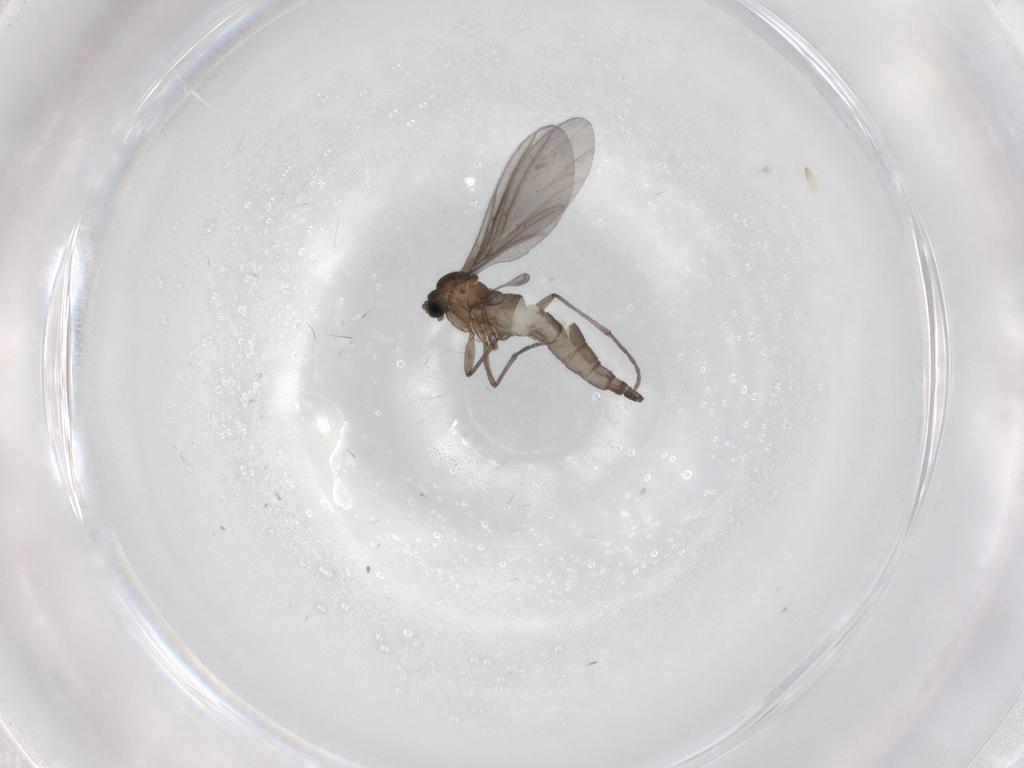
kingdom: Animalia
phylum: Arthropoda
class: Insecta
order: Diptera
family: Sciaridae
